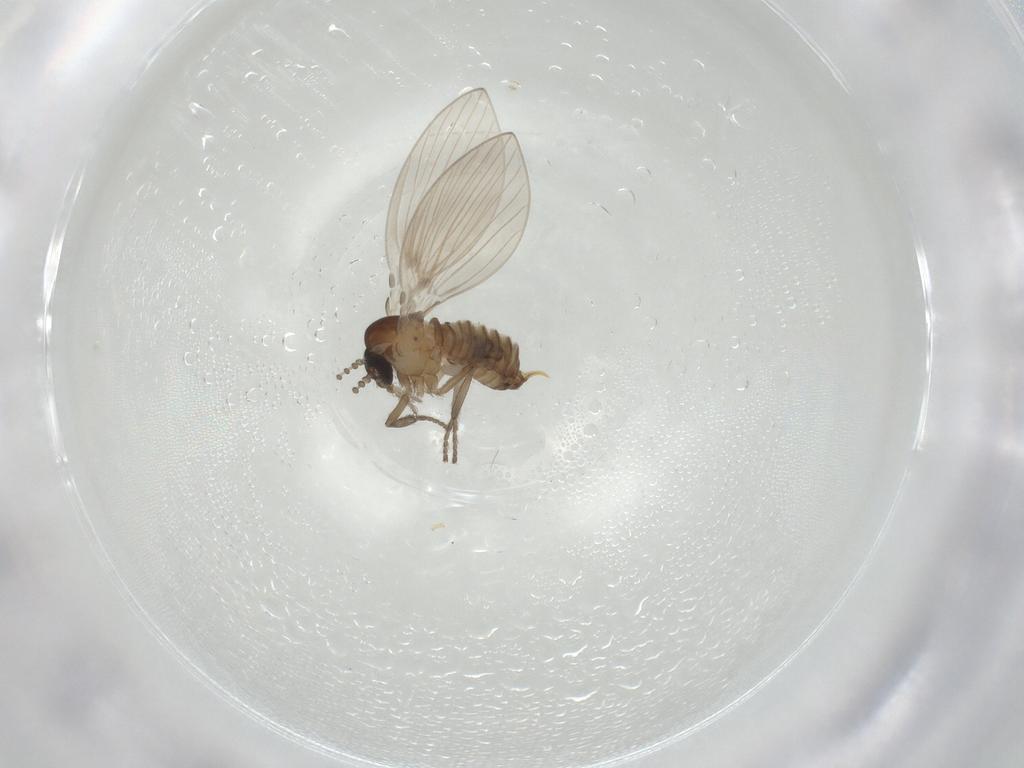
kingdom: Animalia
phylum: Arthropoda
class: Insecta
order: Diptera
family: Psychodidae
